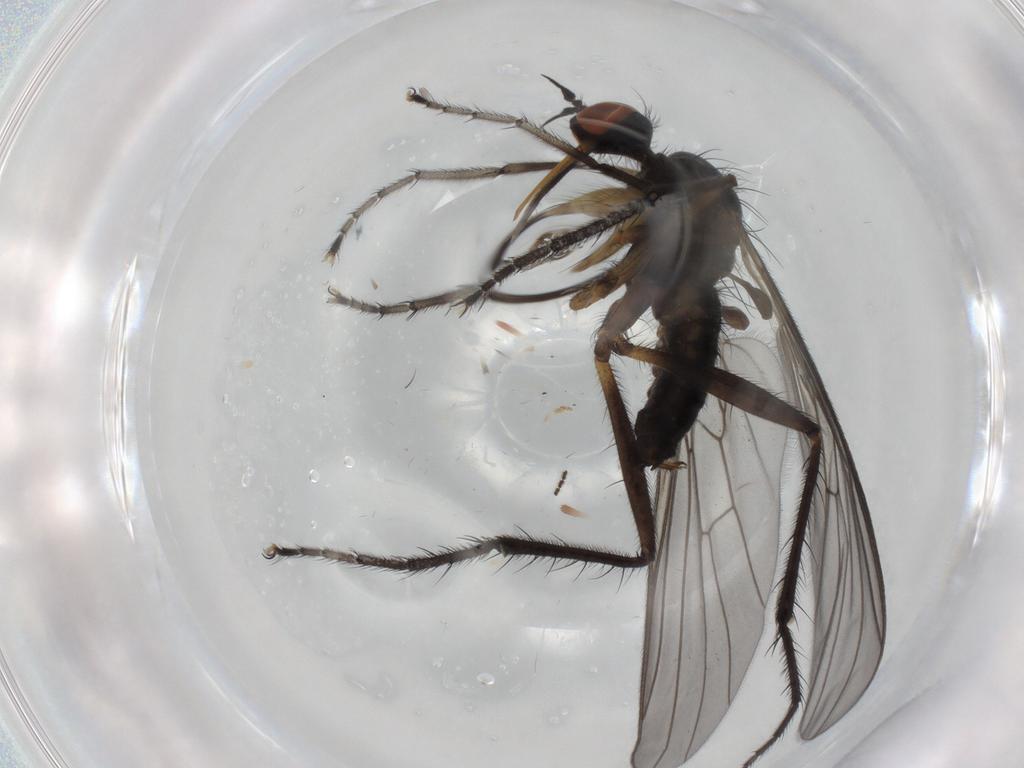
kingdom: Animalia
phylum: Arthropoda
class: Insecta
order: Diptera
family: Empididae
